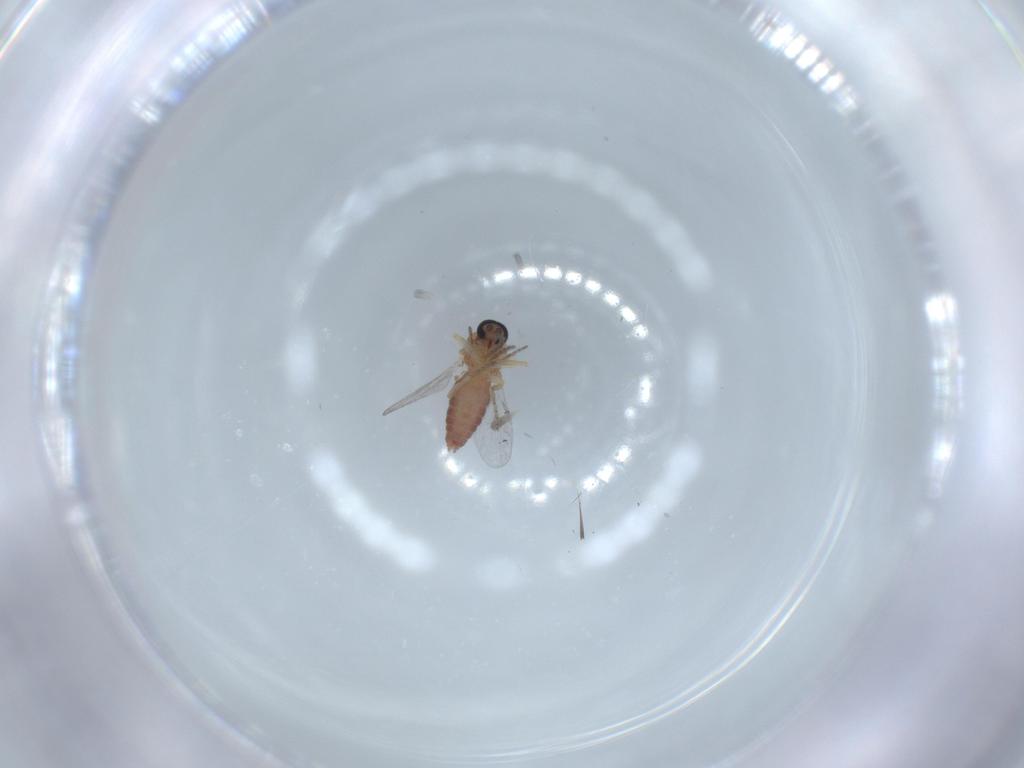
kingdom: Animalia
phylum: Arthropoda
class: Insecta
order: Diptera
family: Ceratopogonidae
